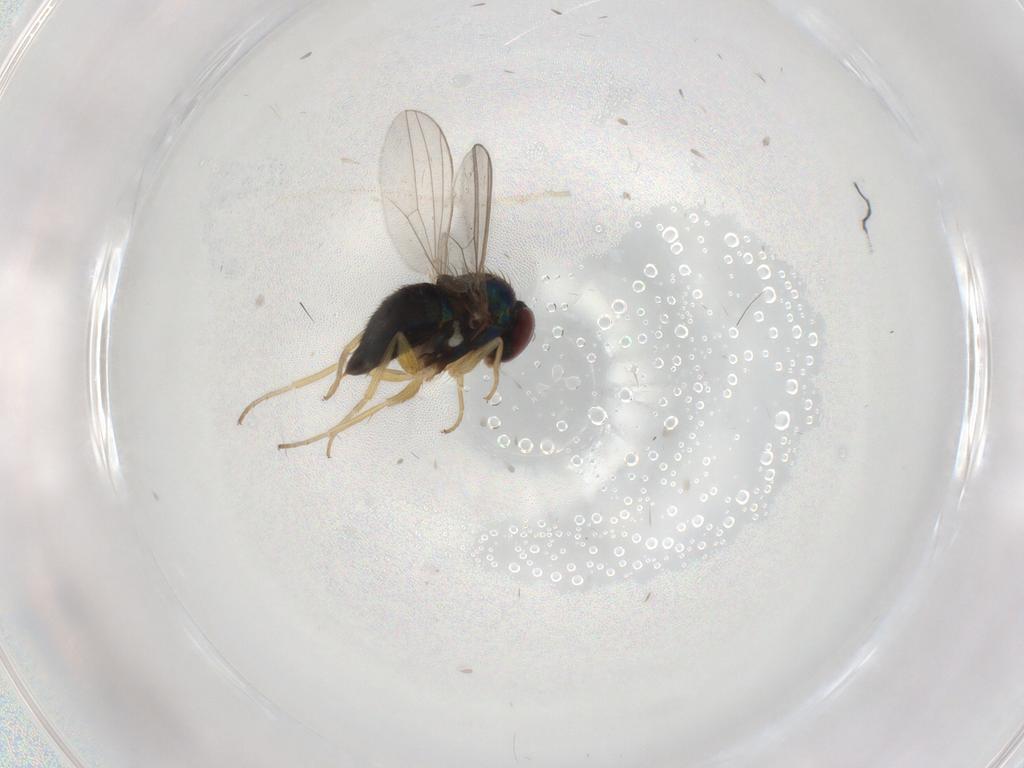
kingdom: Animalia
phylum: Arthropoda
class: Insecta
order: Diptera
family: Dolichopodidae
